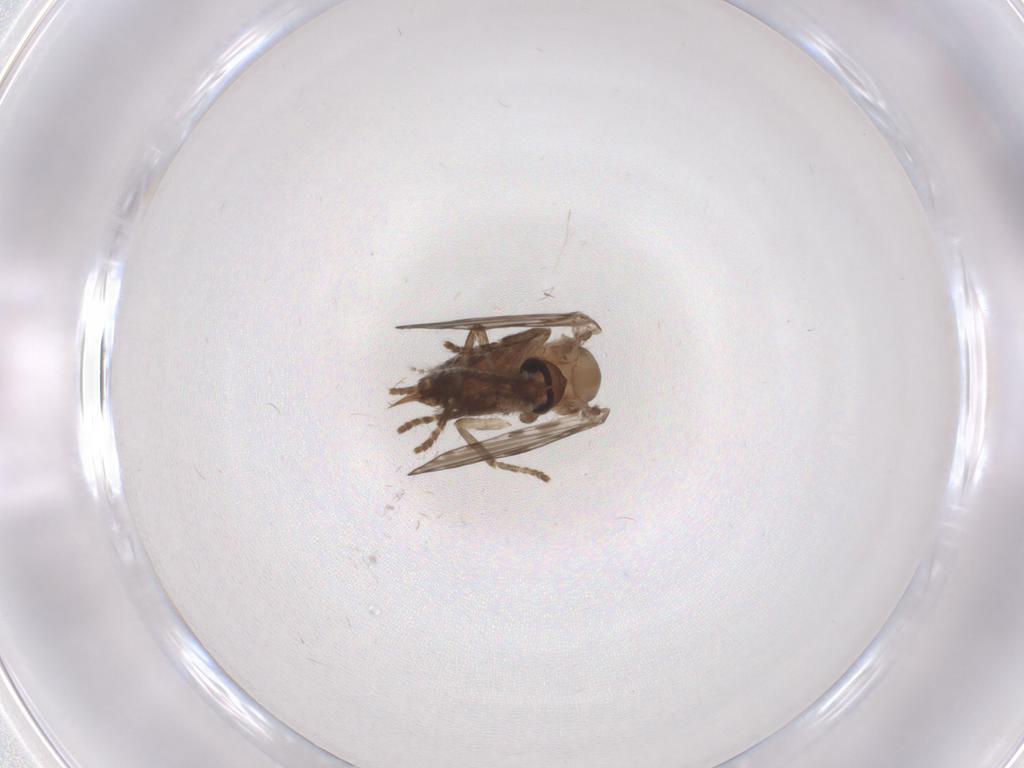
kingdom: Animalia
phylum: Arthropoda
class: Insecta
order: Diptera
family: Psychodidae
